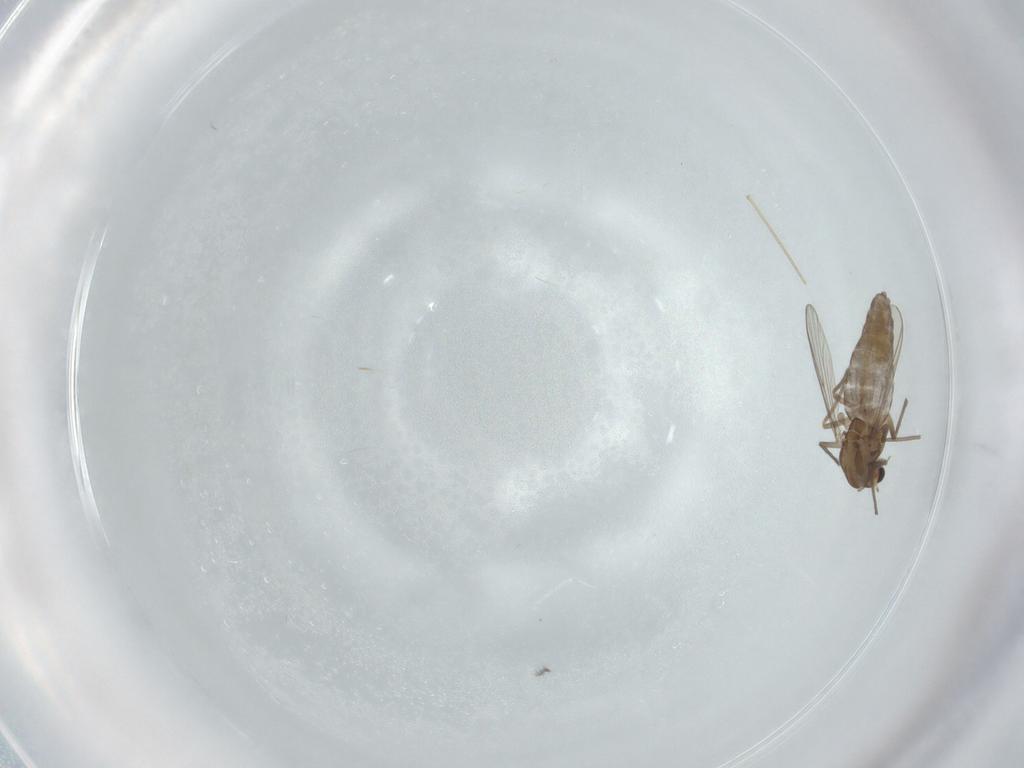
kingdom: Animalia
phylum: Arthropoda
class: Insecta
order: Diptera
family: Chironomidae
